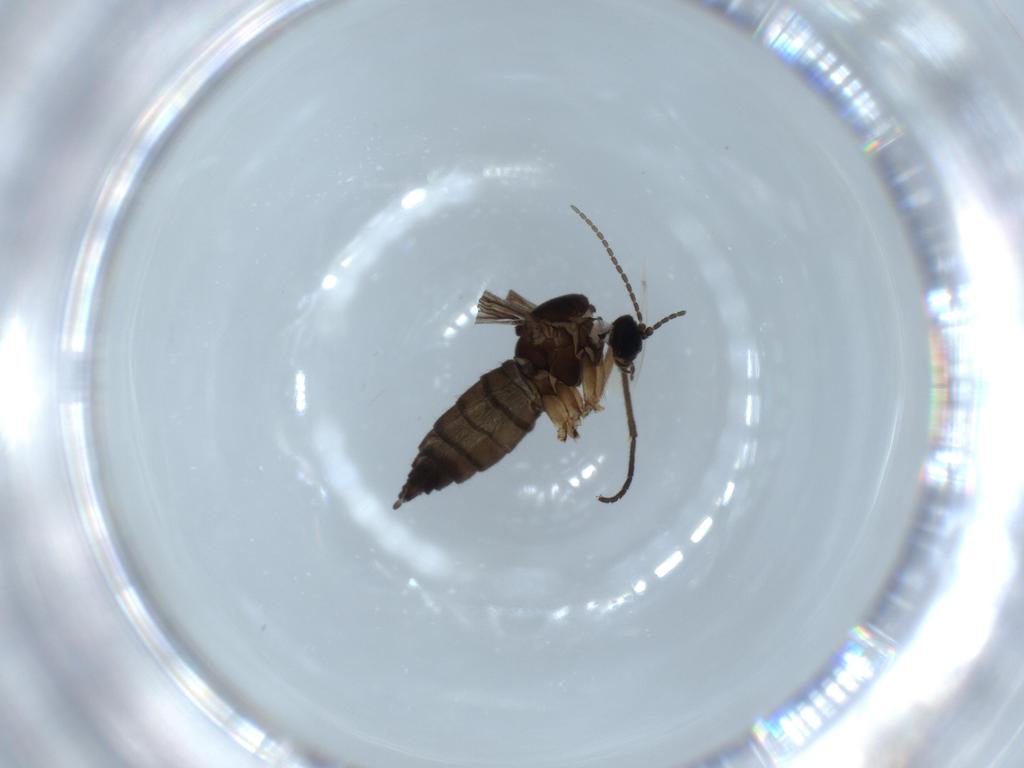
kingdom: Animalia
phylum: Arthropoda
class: Insecta
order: Diptera
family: Sciaridae
